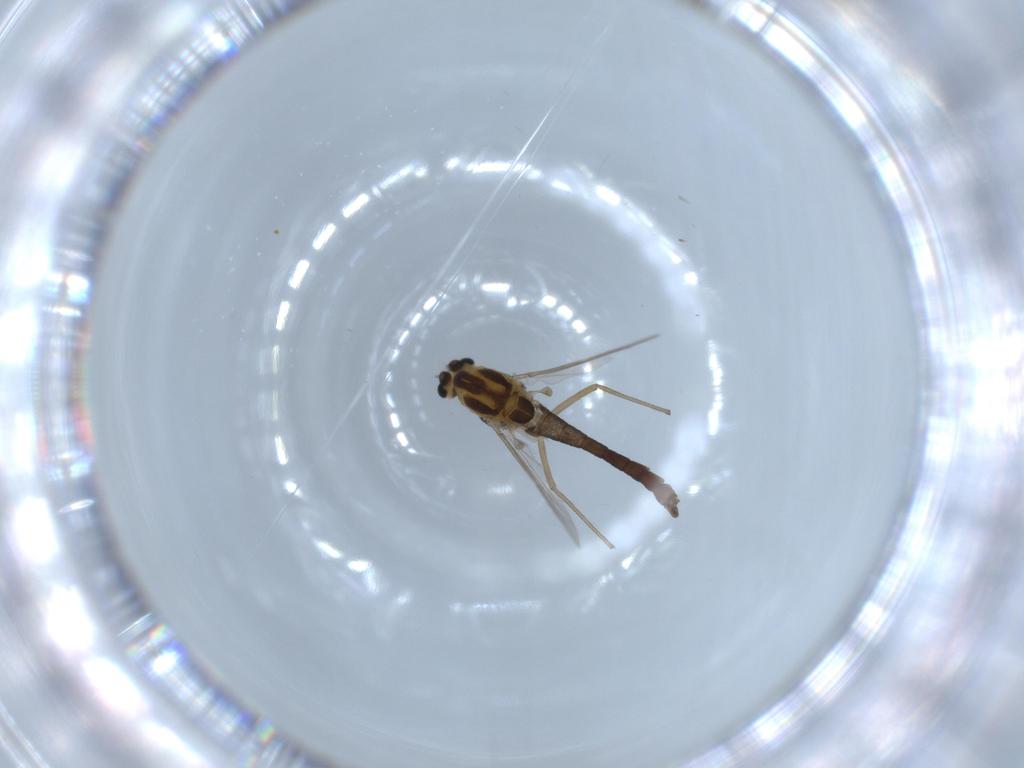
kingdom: Animalia
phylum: Arthropoda
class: Insecta
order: Diptera
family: Chironomidae
